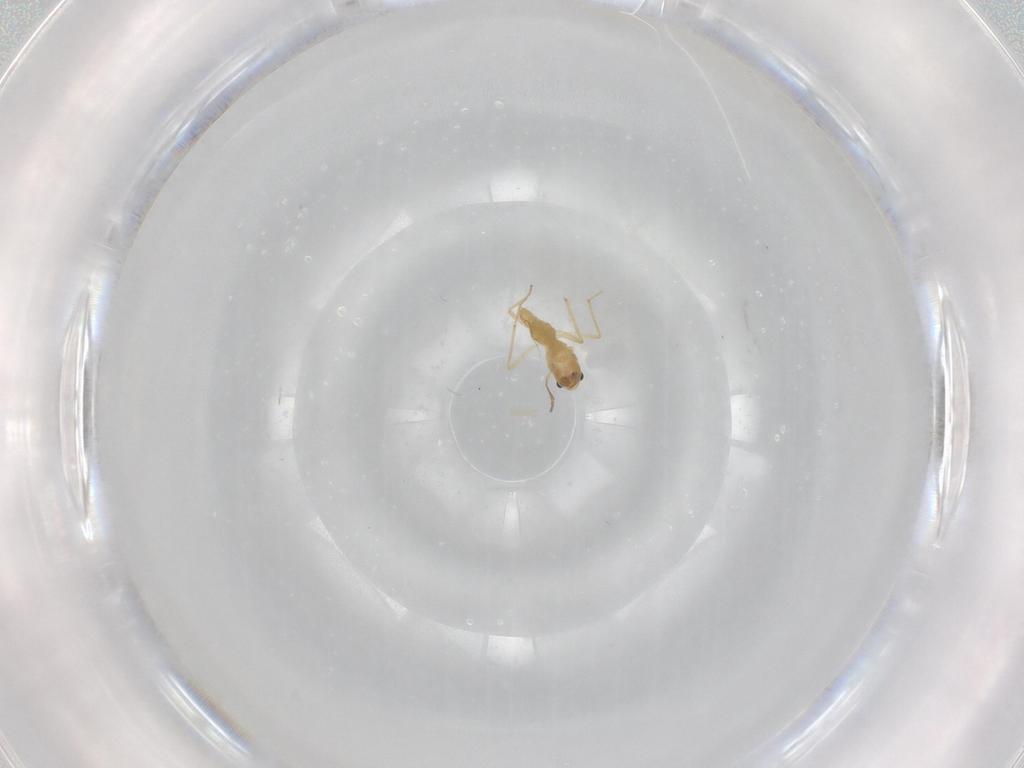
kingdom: Animalia
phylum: Arthropoda
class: Insecta
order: Diptera
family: Chironomidae
